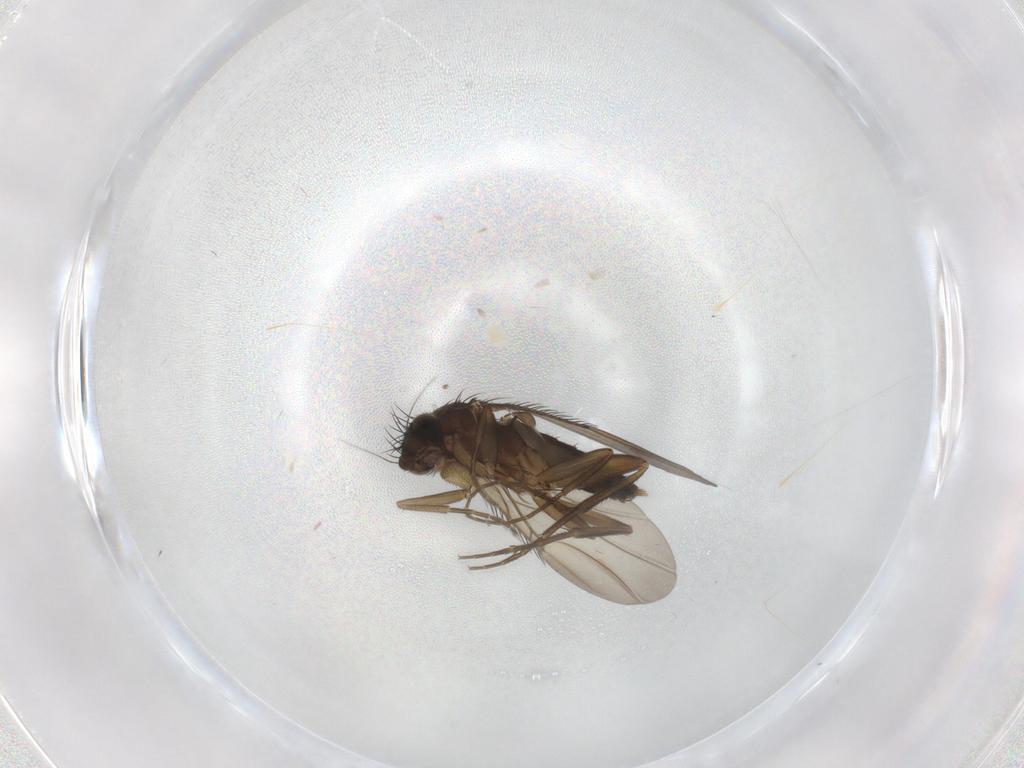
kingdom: Animalia
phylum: Arthropoda
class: Insecta
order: Diptera
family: Phoridae
